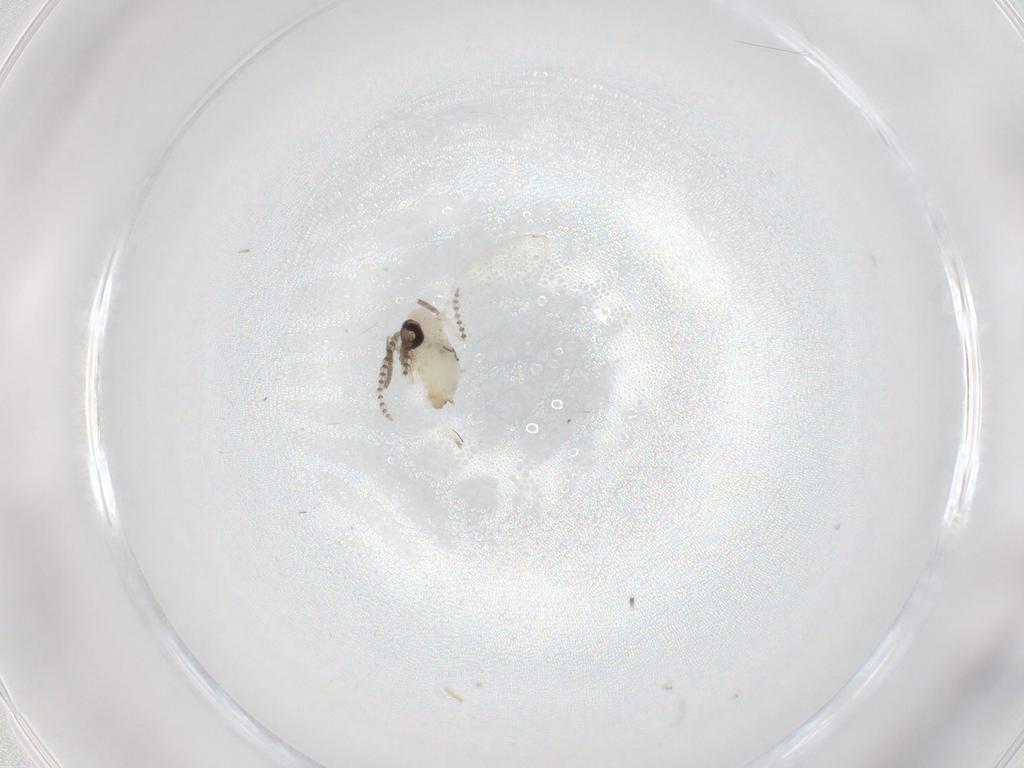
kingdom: Animalia
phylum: Arthropoda
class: Insecta
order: Diptera
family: Psychodidae
